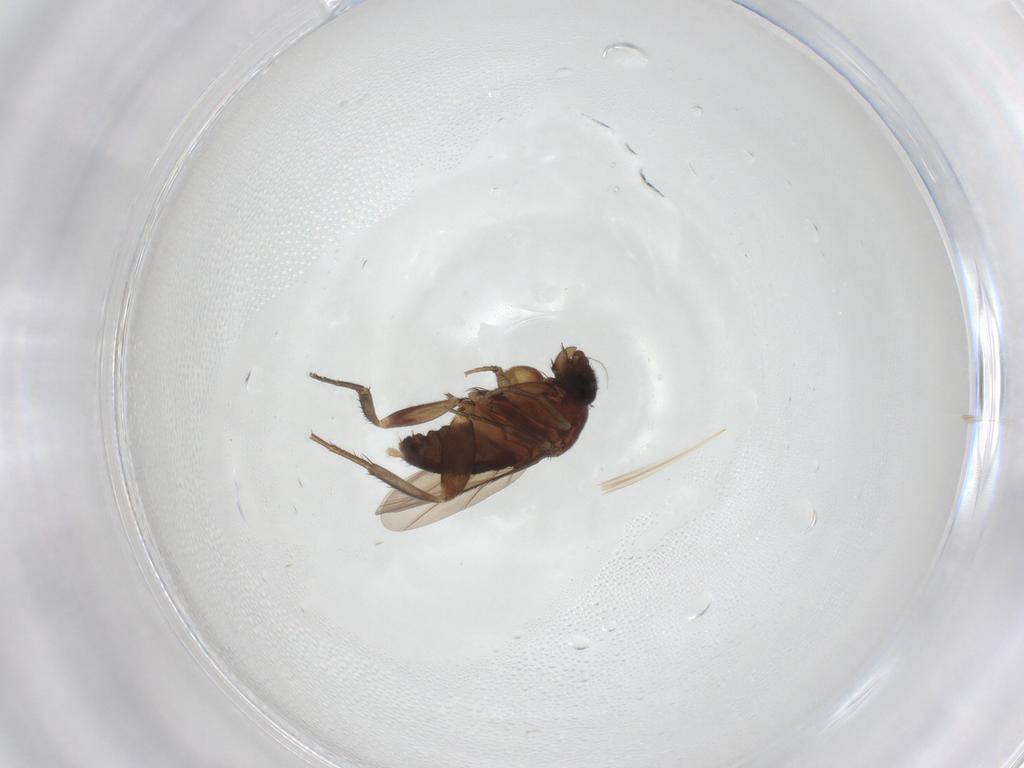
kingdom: Animalia
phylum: Arthropoda
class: Insecta
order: Diptera
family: Phoridae
